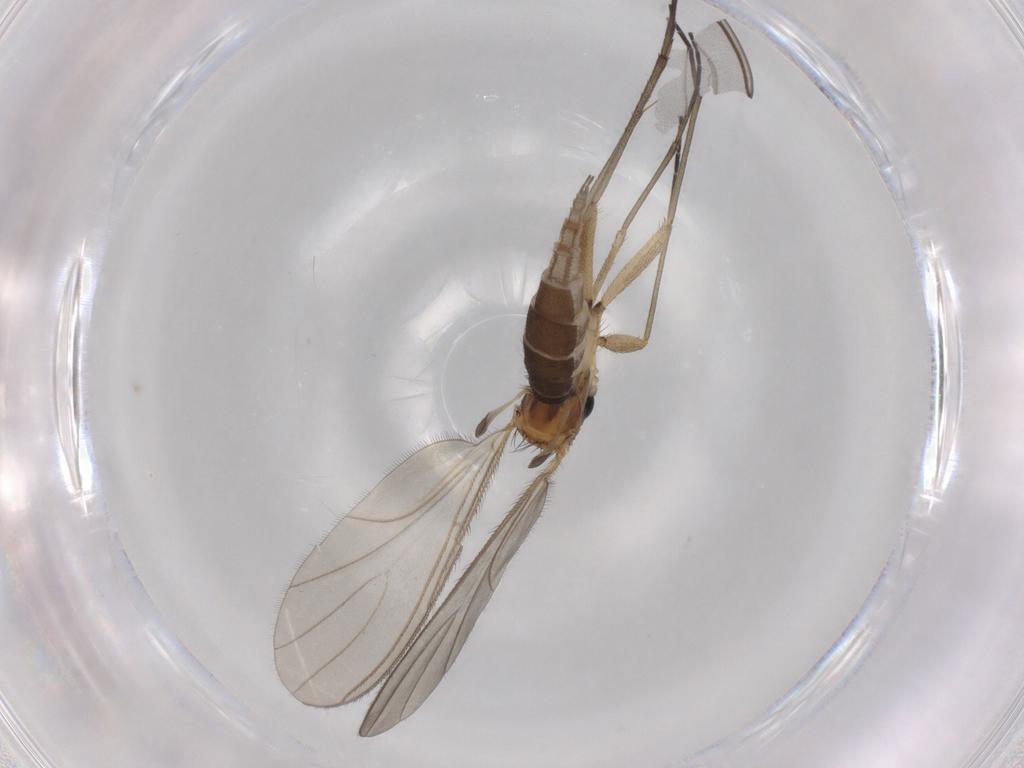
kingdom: Animalia
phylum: Arthropoda
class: Insecta
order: Diptera
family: Sciaridae
